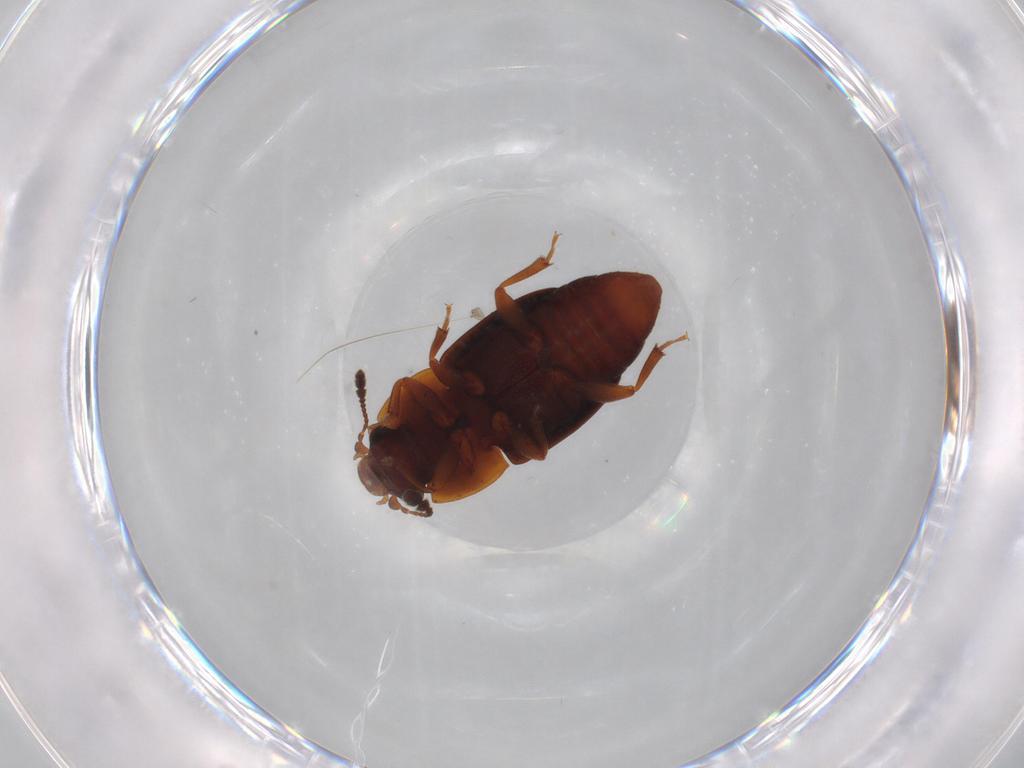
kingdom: Animalia
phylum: Arthropoda
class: Insecta
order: Coleoptera
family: Nitidulidae
